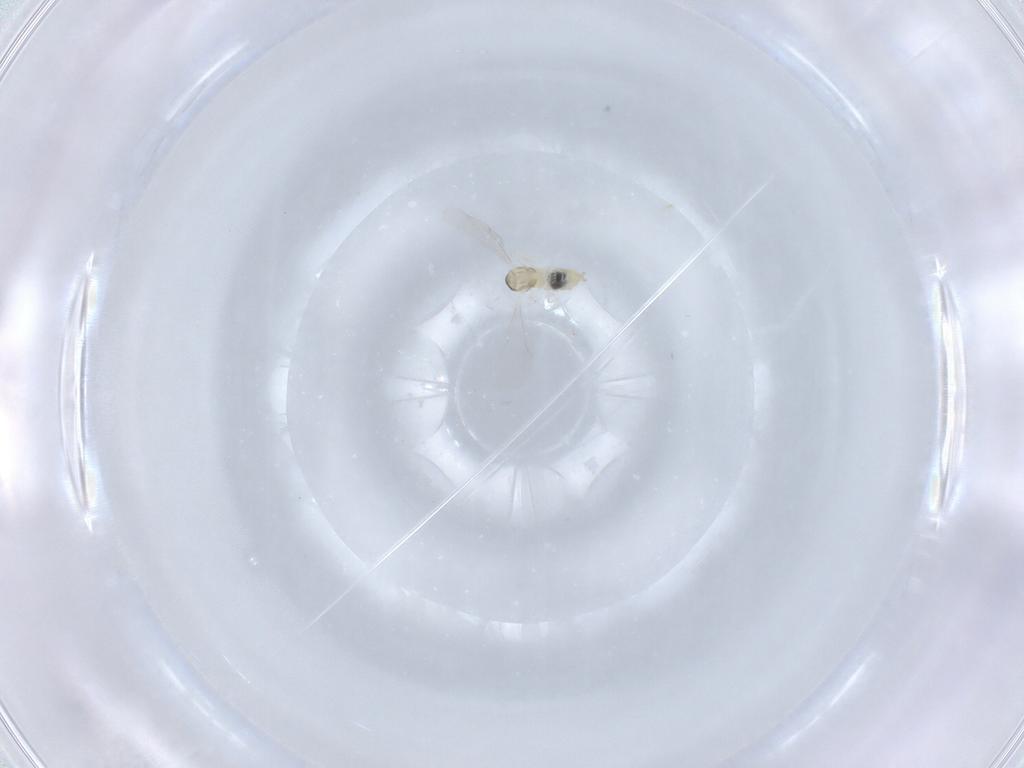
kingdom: Animalia
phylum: Arthropoda
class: Insecta
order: Diptera
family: Cecidomyiidae
